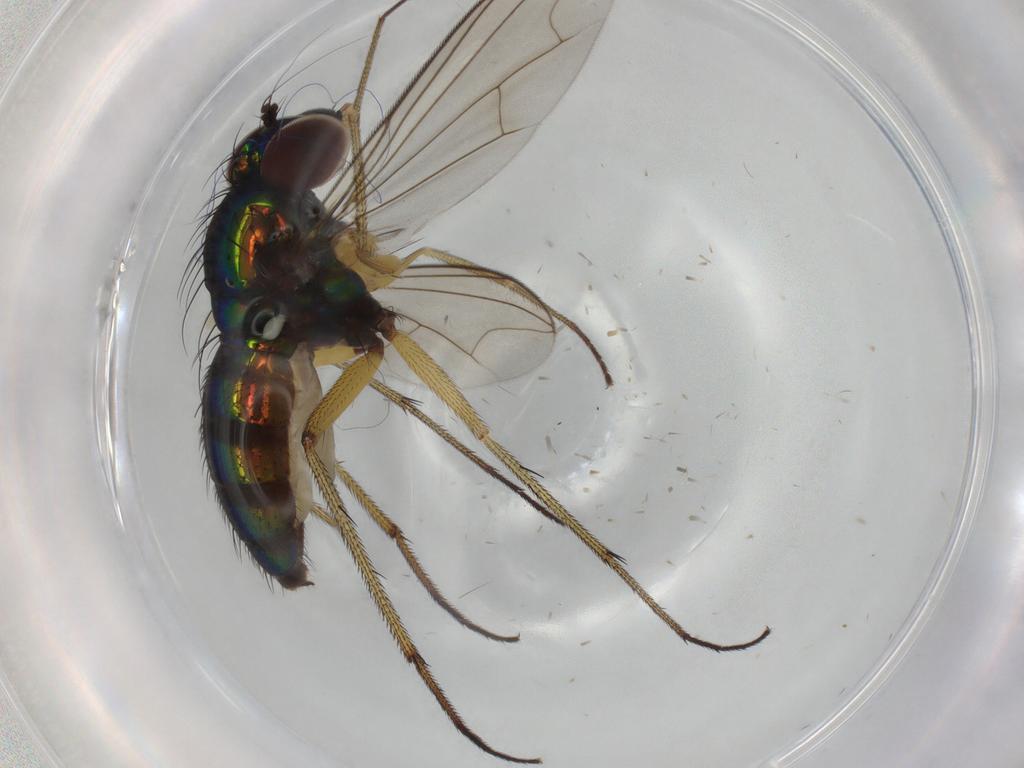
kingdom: Animalia
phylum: Arthropoda
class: Insecta
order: Diptera
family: Dolichopodidae
